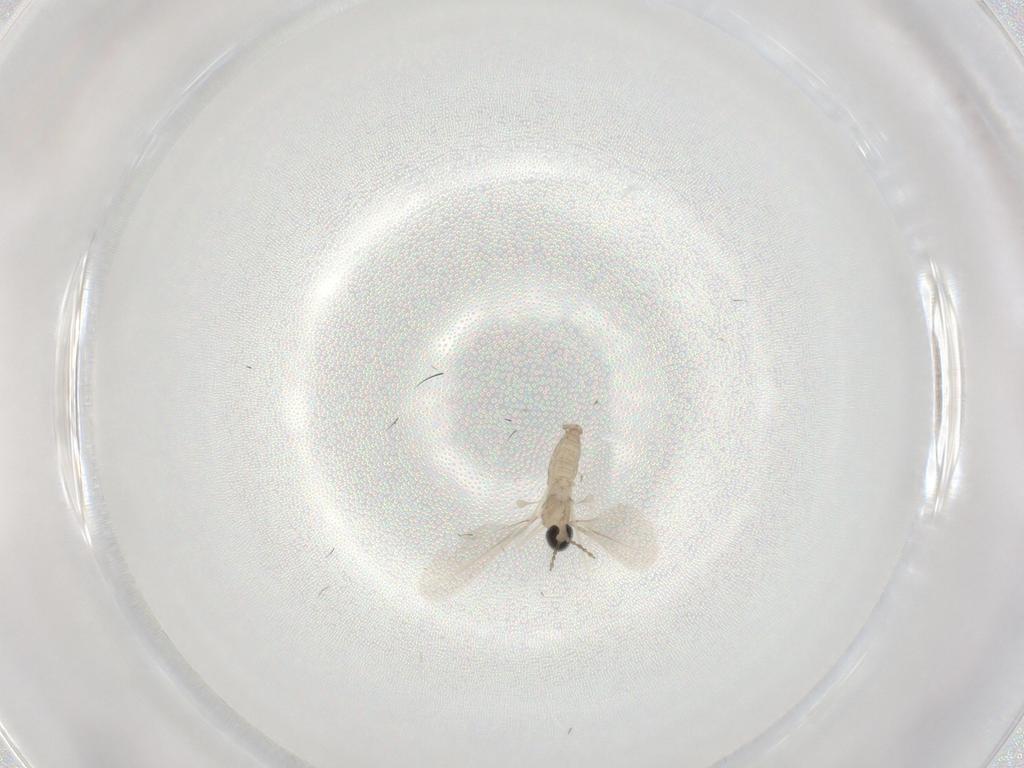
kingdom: Animalia
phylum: Arthropoda
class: Insecta
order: Diptera
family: Cecidomyiidae
